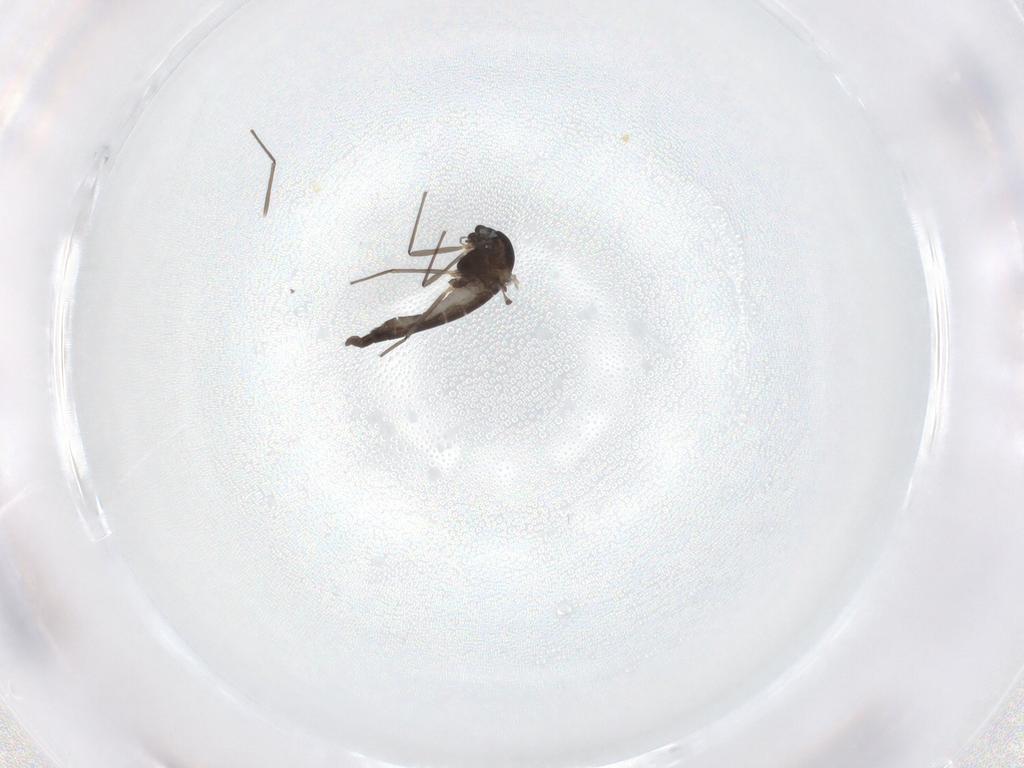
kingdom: Animalia
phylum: Arthropoda
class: Insecta
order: Diptera
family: Chironomidae
